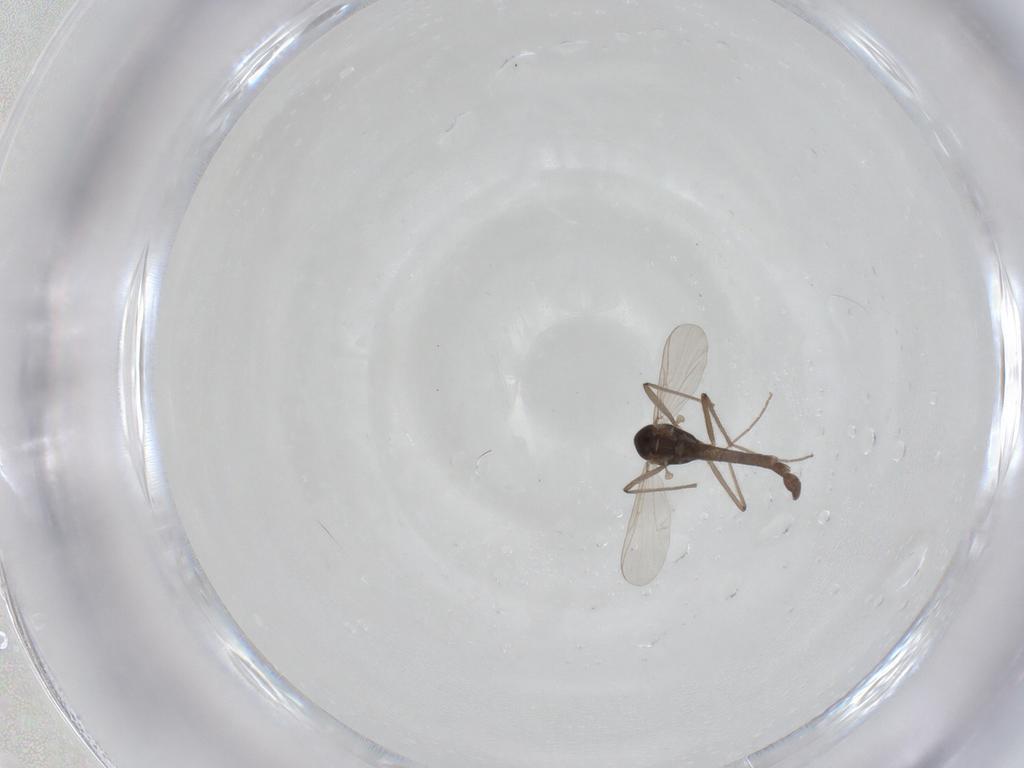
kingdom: Animalia
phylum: Arthropoda
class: Insecta
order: Diptera
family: Chironomidae
